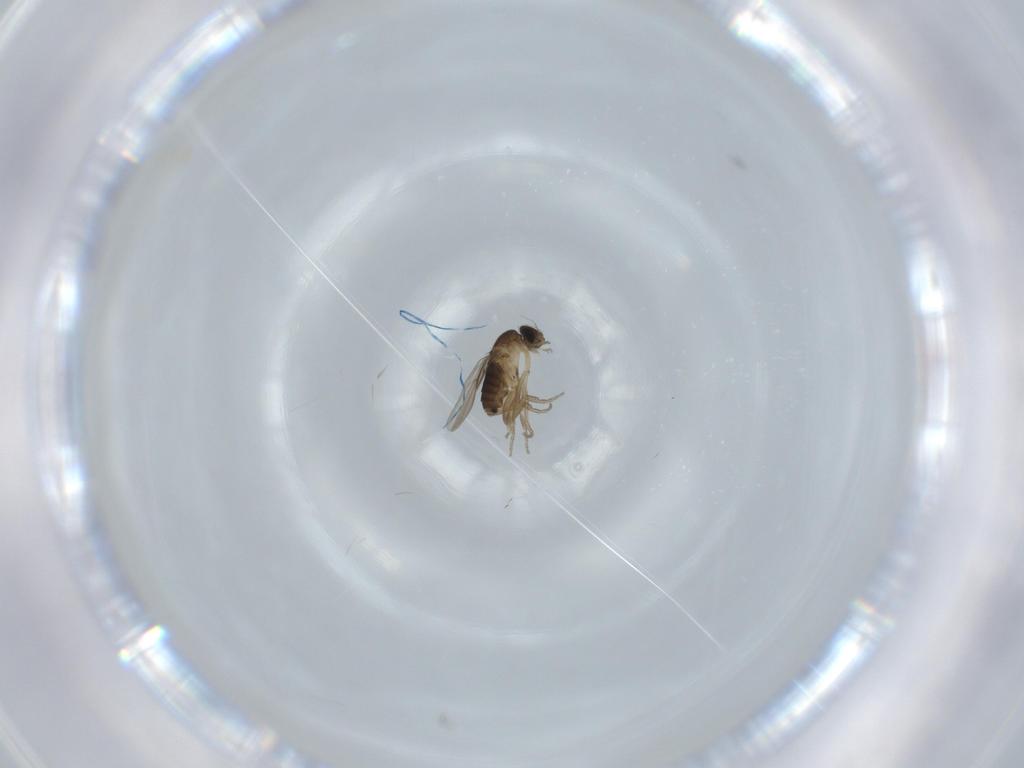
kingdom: Animalia
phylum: Arthropoda
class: Insecta
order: Diptera
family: Phoridae
